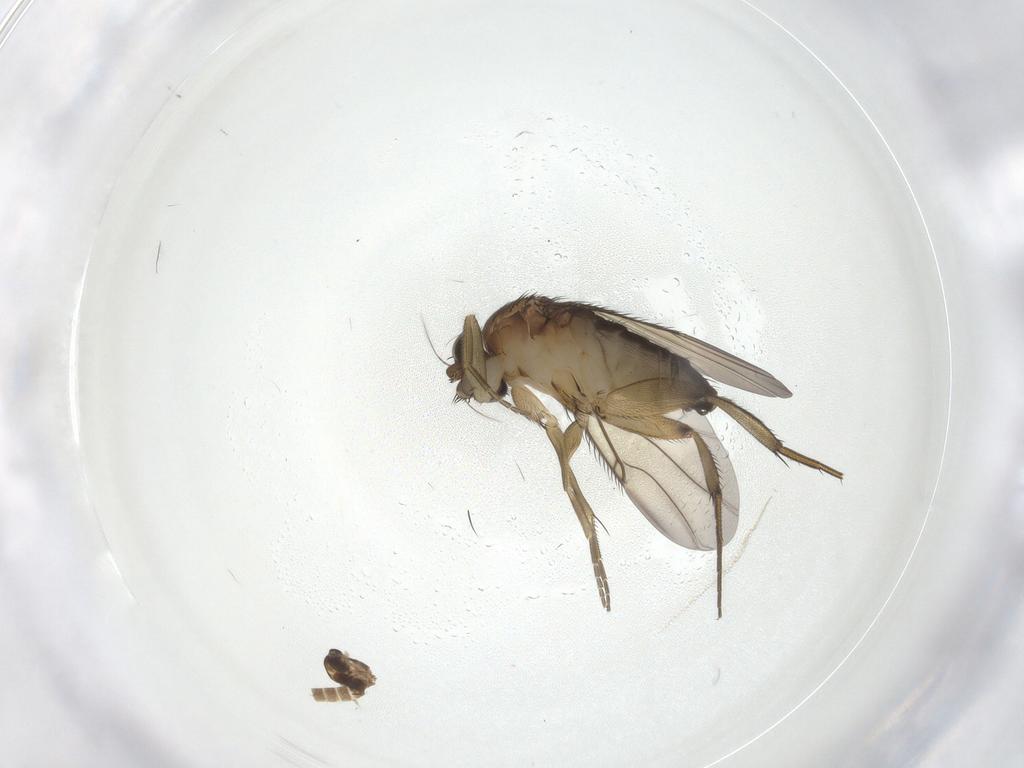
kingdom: Animalia
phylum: Arthropoda
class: Insecta
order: Diptera
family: Phoridae
